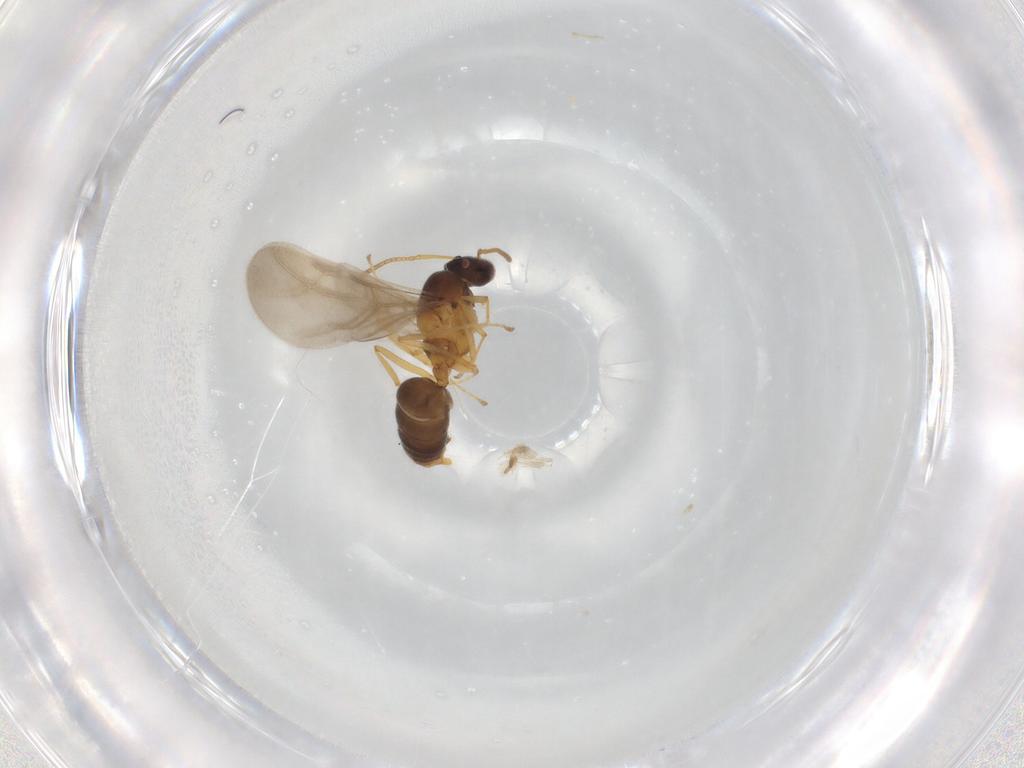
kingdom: Animalia
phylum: Arthropoda
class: Insecta
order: Hymenoptera
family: Formicidae
